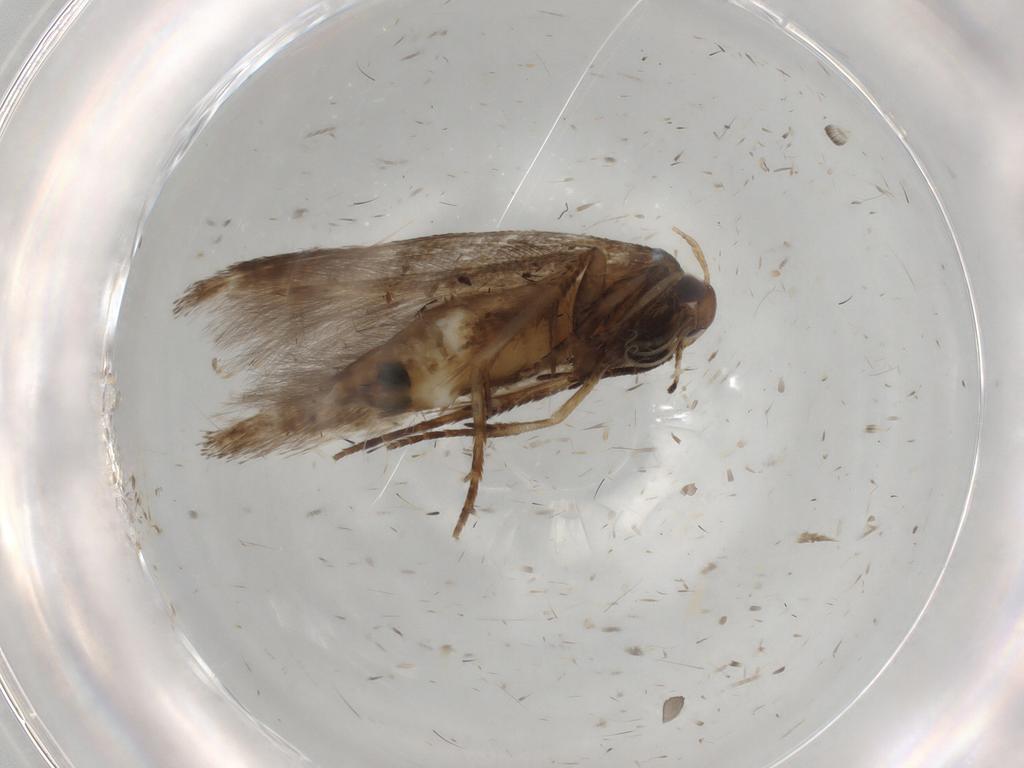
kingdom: Animalia
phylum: Arthropoda
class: Insecta
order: Lepidoptera
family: Cosmopterigidae
